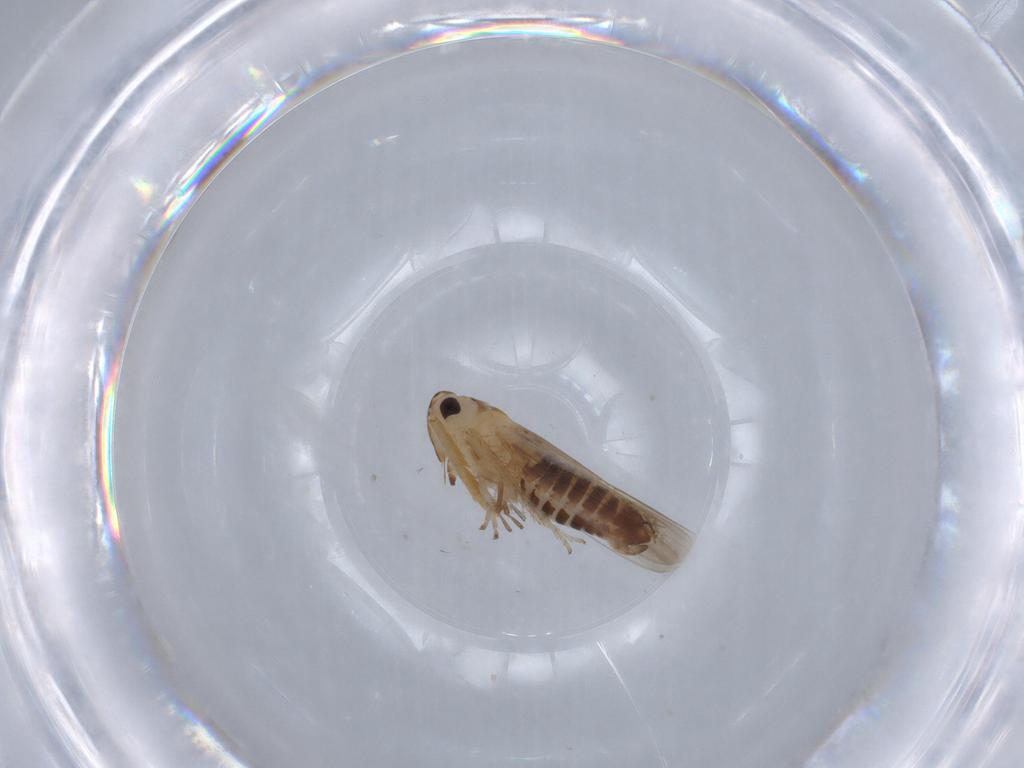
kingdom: Animalia
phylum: Arthropoda
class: Insecta
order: Hemiptera
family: Cicadellidae
